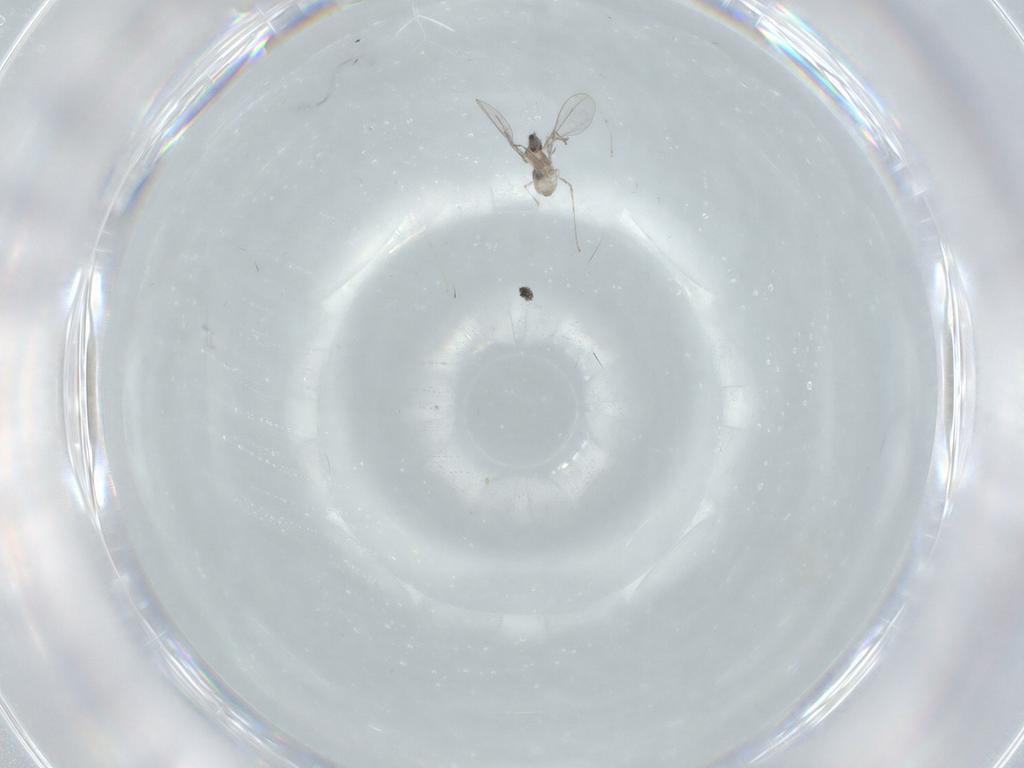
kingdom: Animalia
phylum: Arthropoda
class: Insecta
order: Diptera
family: Cecidomyiidae
